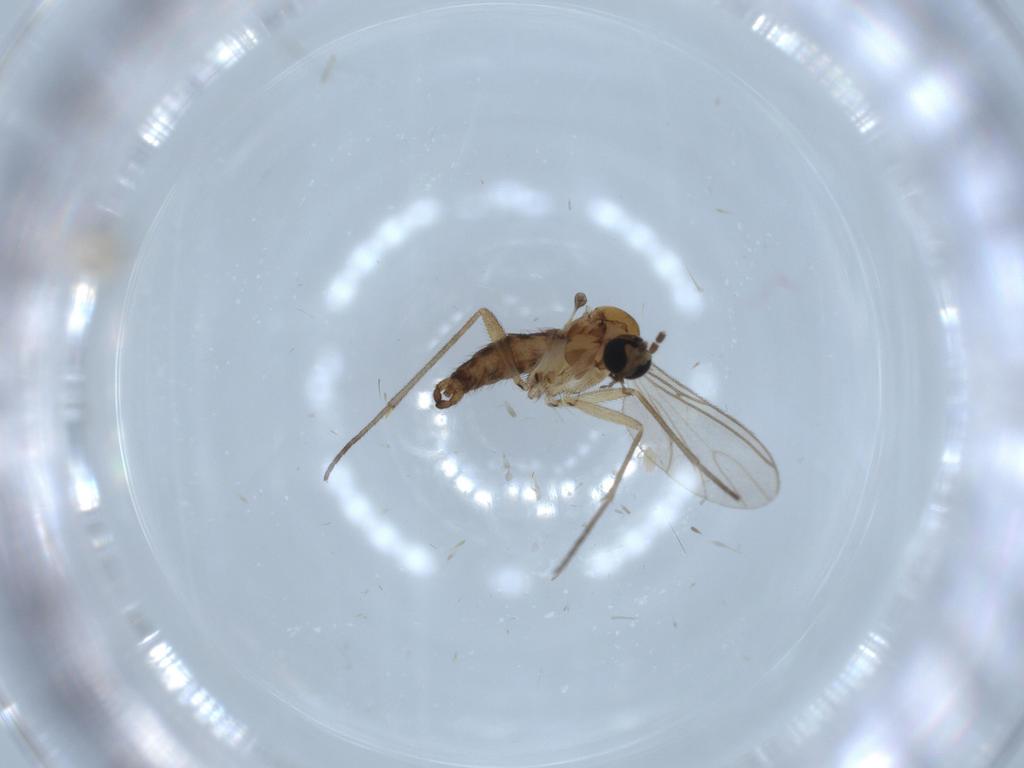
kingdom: Animalia
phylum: Arthropoda
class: Insecta
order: Diptera
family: Sciaridae
